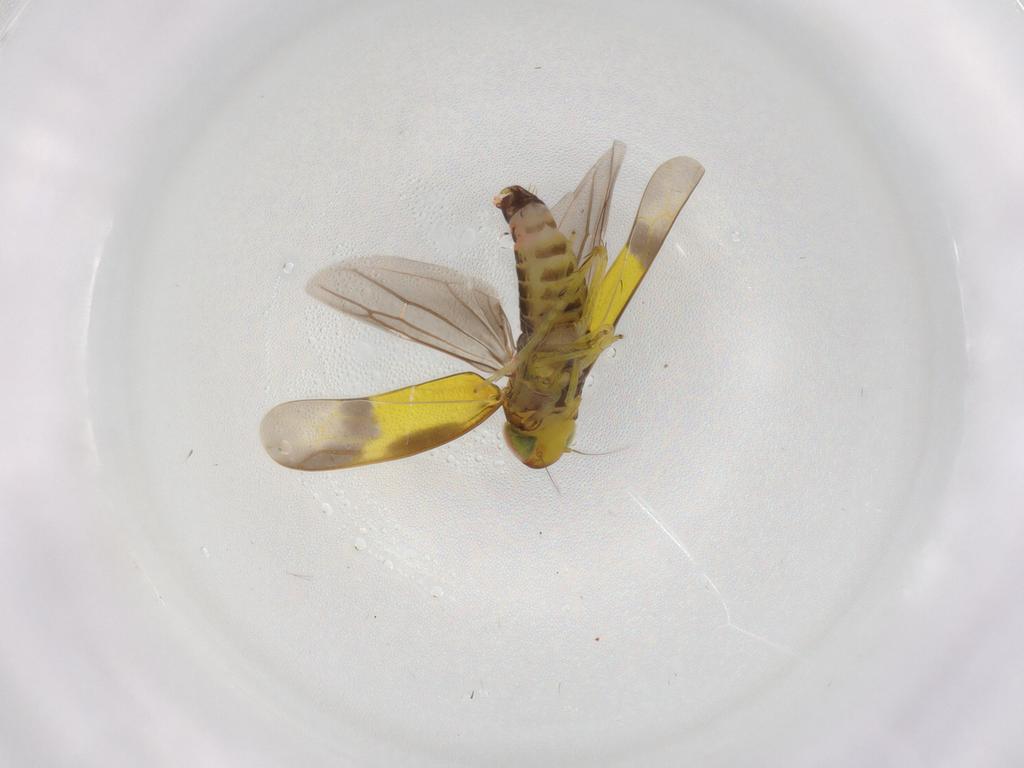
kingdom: Animalia
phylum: Arthropoda
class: Insecta
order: Hemiptera
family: Cicadellidae
